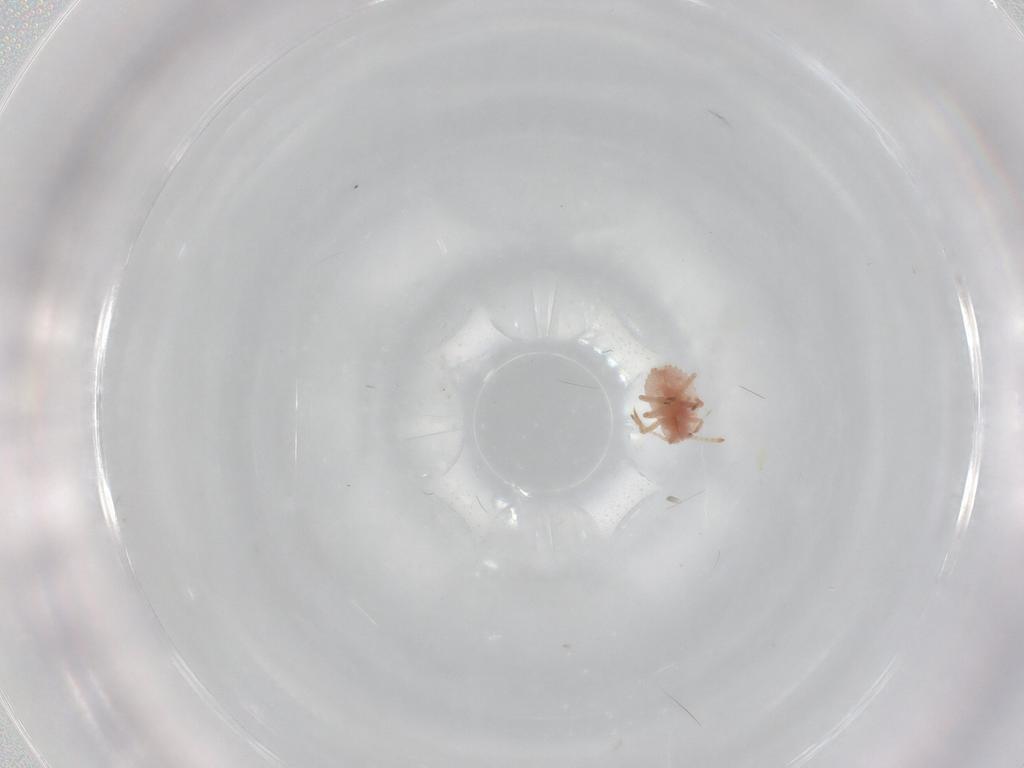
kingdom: Animalia
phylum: Arthropoda
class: Insecta
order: Hemiptera
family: Coccoidea_incertae_sedis
